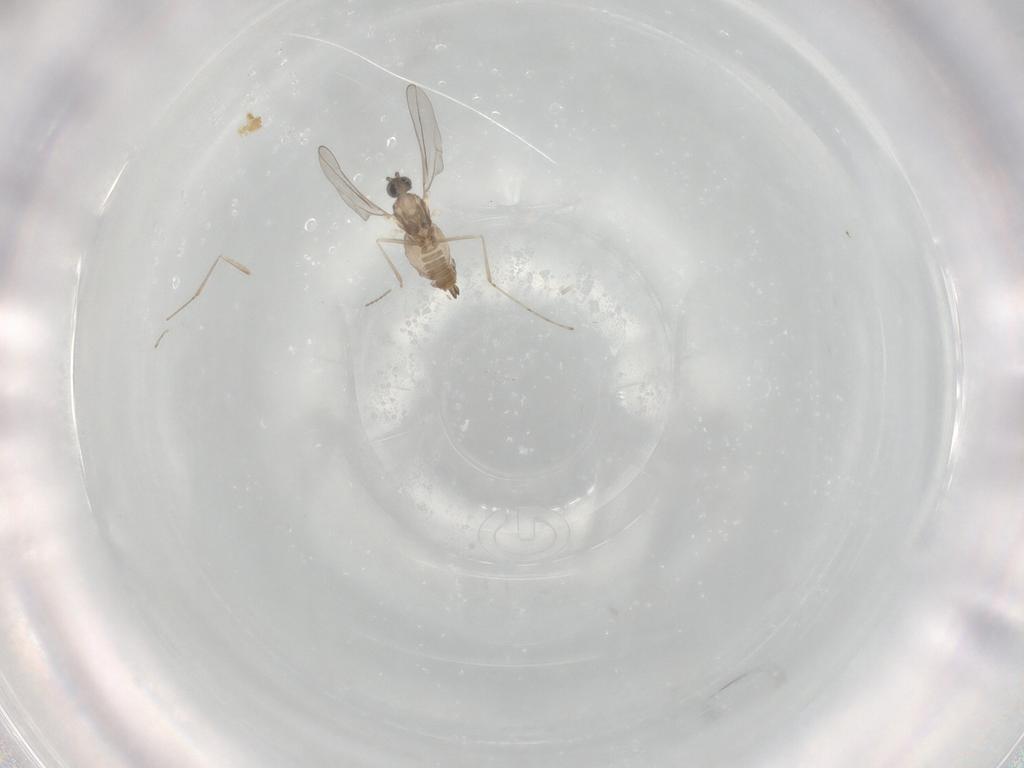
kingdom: Animalia
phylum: Arthropoda
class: Insecta
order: Diptera
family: Cecidomyiidae
